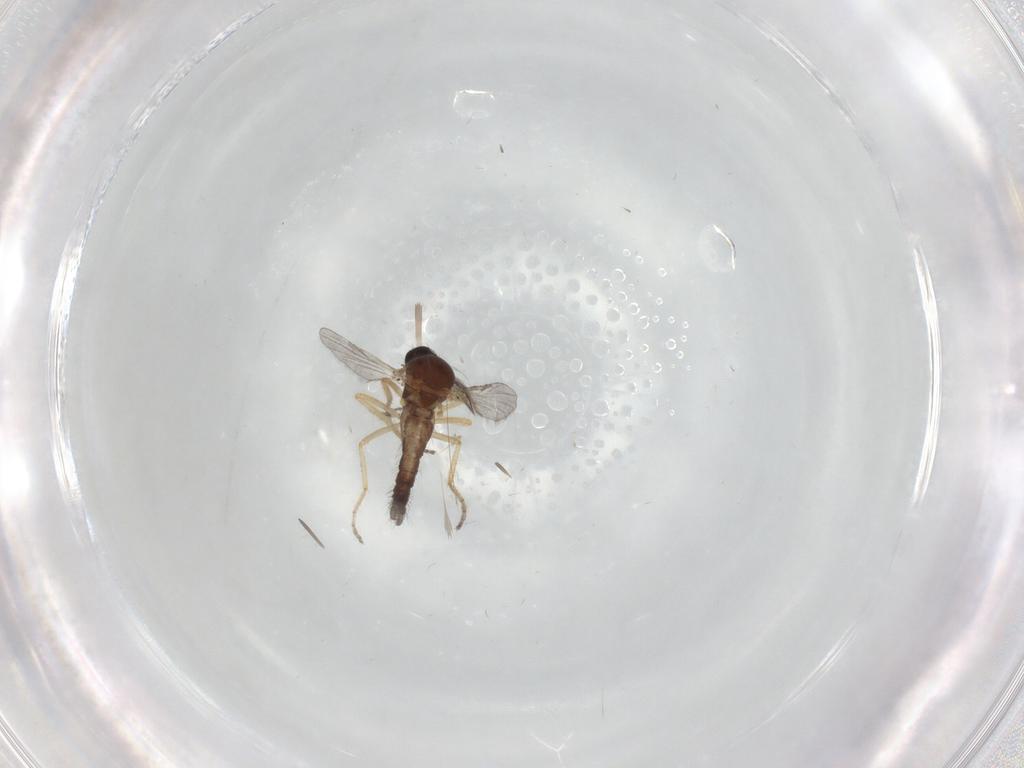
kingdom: Animalia
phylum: Arthropoda
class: Insecta
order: Diptera
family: Ceratopogonidae
